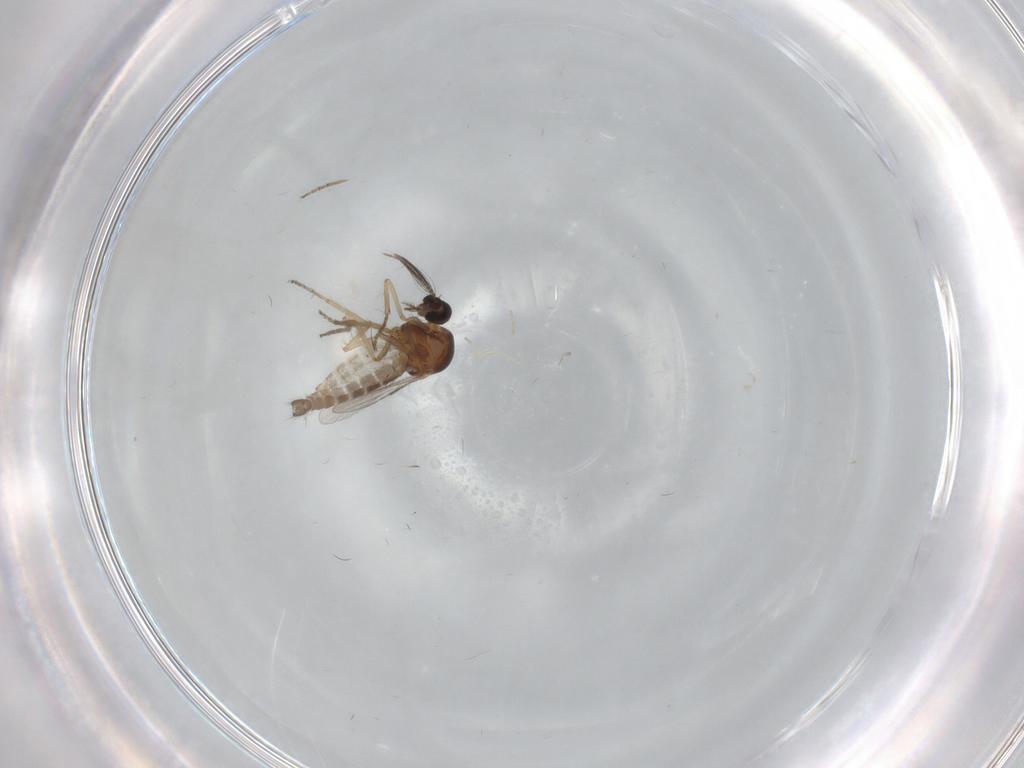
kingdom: Animalia
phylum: Arthropoda
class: Insecta
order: Diptera
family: Ceratopogonidae
